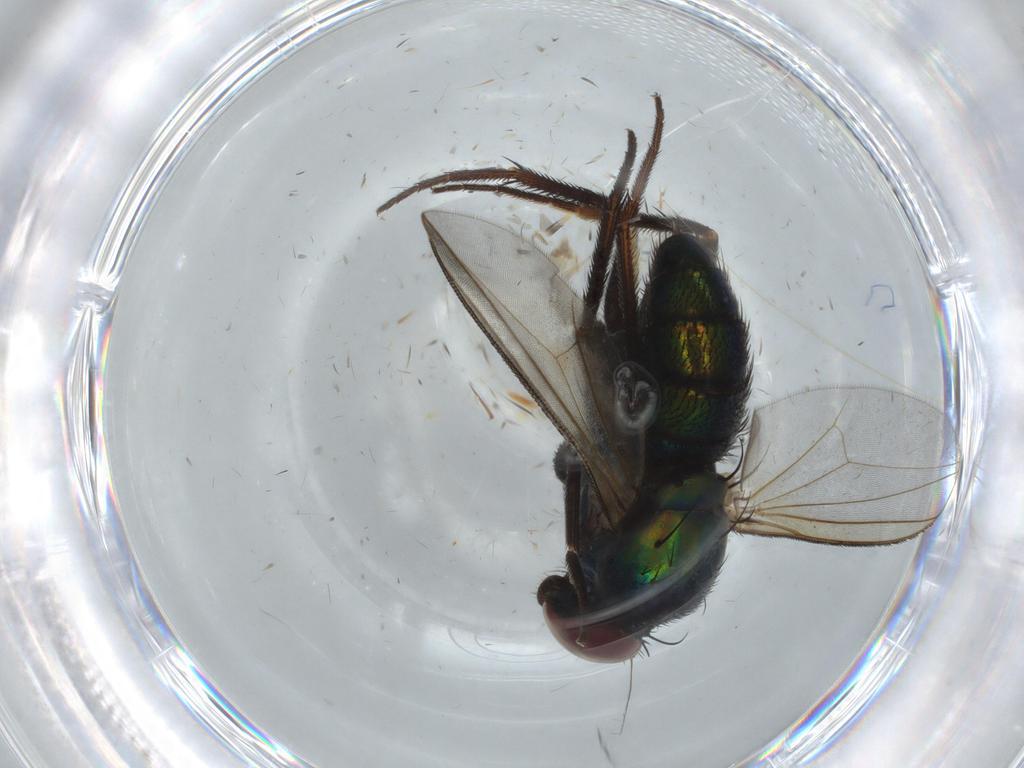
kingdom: Animalia
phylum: Arthropoda
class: Insecta
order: Diptera
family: Dolichopodidae
